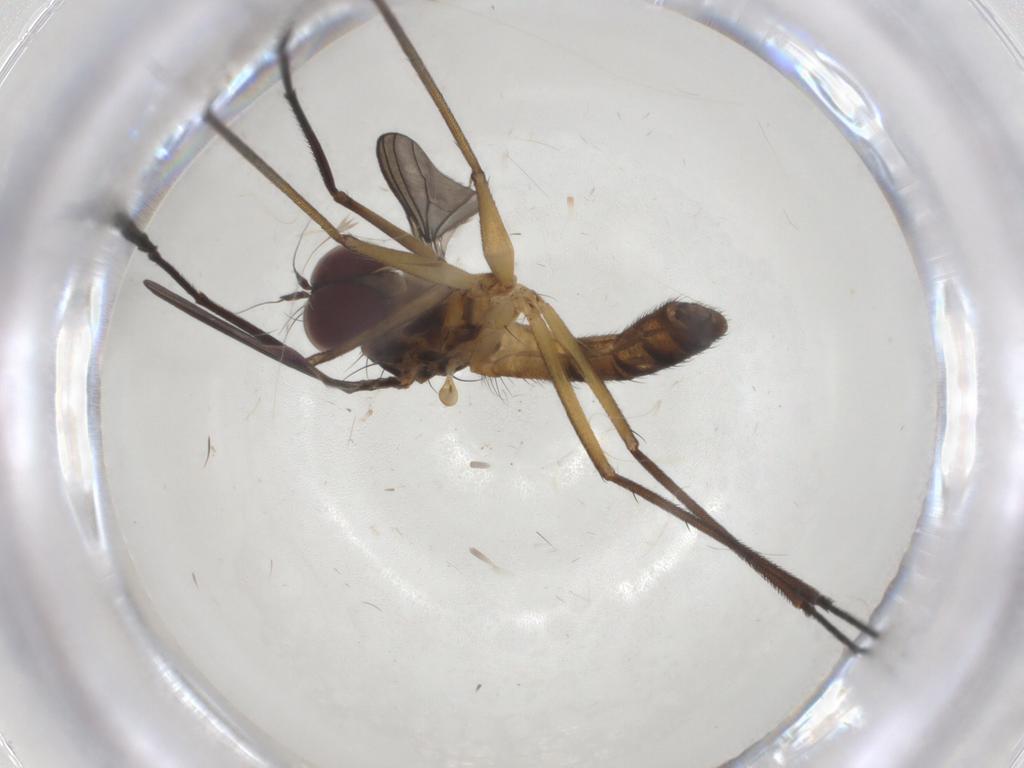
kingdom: Animalia
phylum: Arthropoda
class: Insecta
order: Diptera
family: Dolichopodidae
